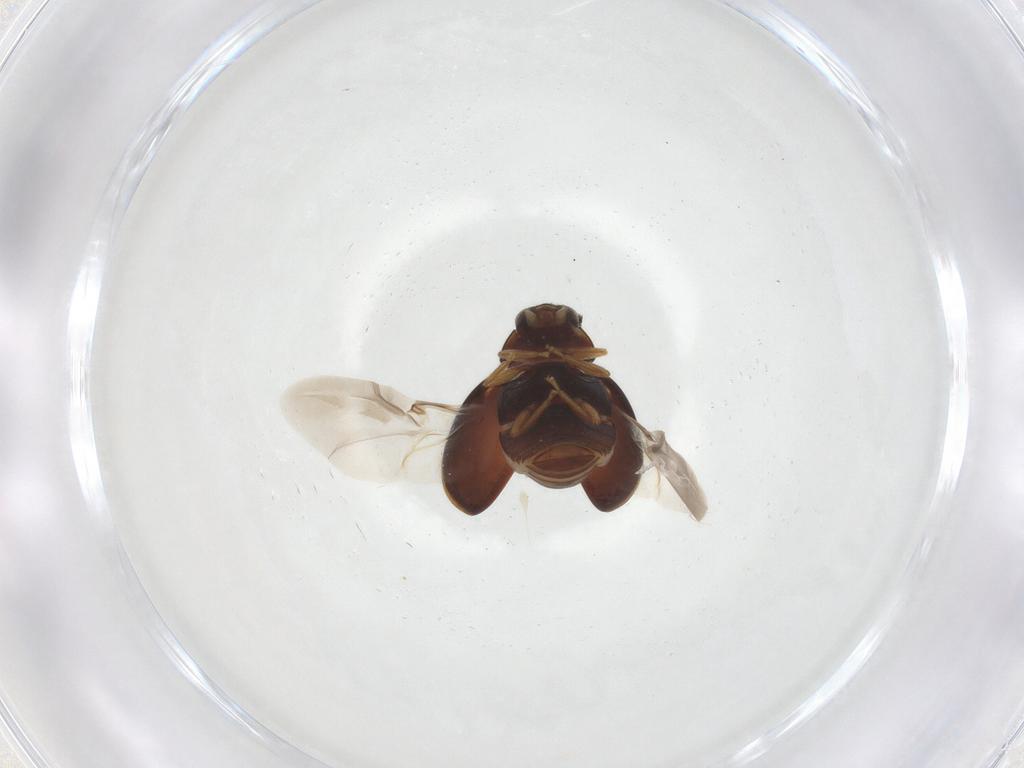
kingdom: Animalia
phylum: Arthropoda
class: Insecta
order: Coleoptera
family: Coccinellidae
